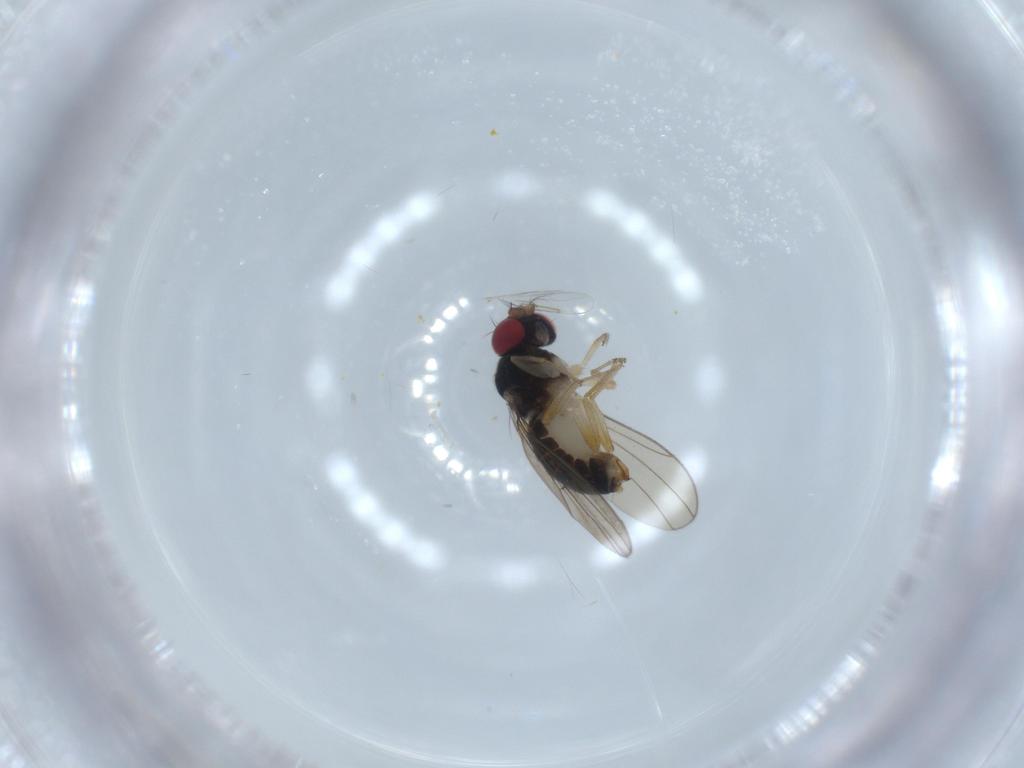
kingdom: Animalia
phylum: Arthropoda
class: Insecta
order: Diptera
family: Drosophilidae
